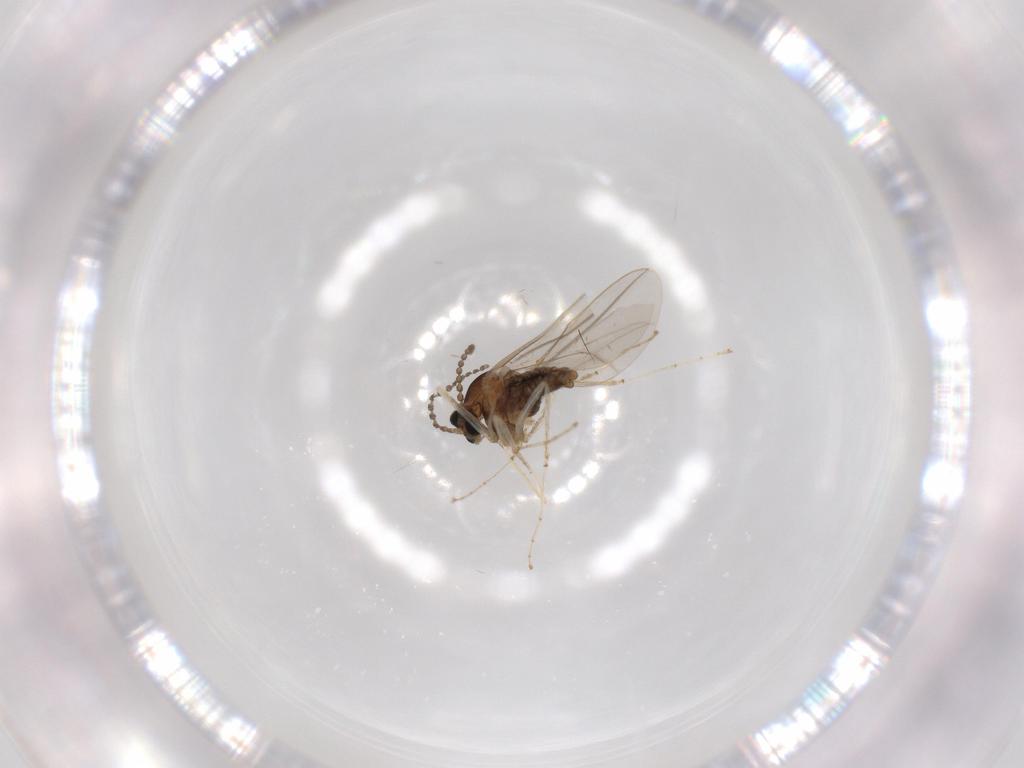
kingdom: Animalia
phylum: Arthropoda
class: Insecta
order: Diptera
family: Cecidomyiidae
